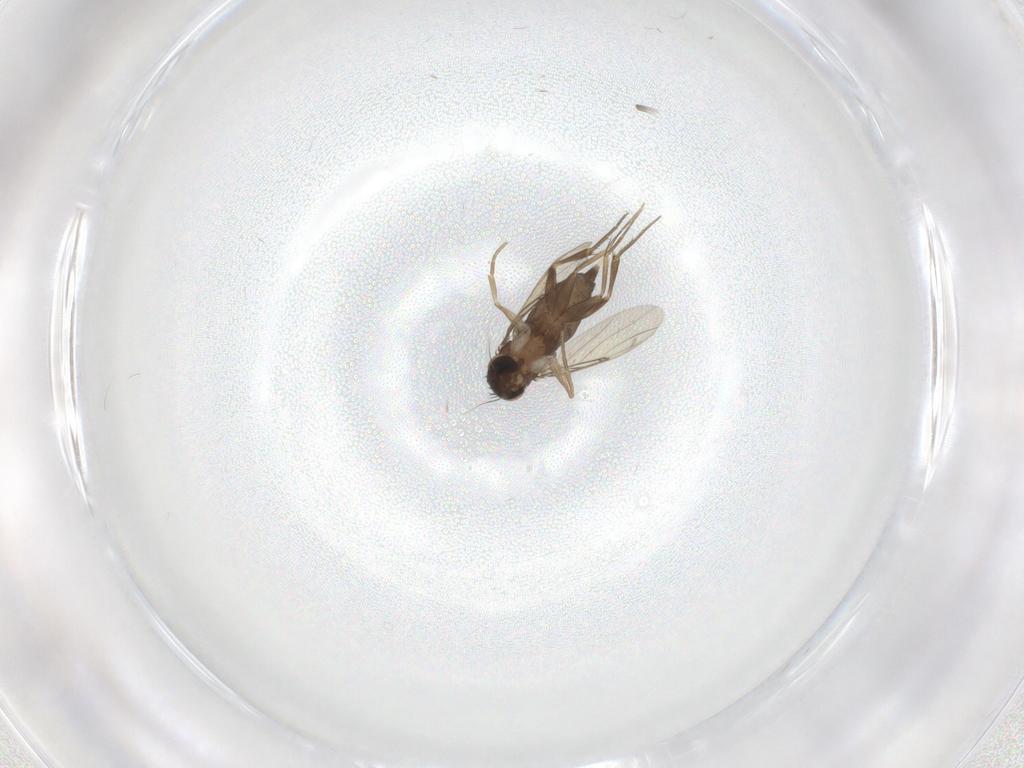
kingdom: Animalia
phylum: Arthropoda
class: Insecta
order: Diptera
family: Phoridae
